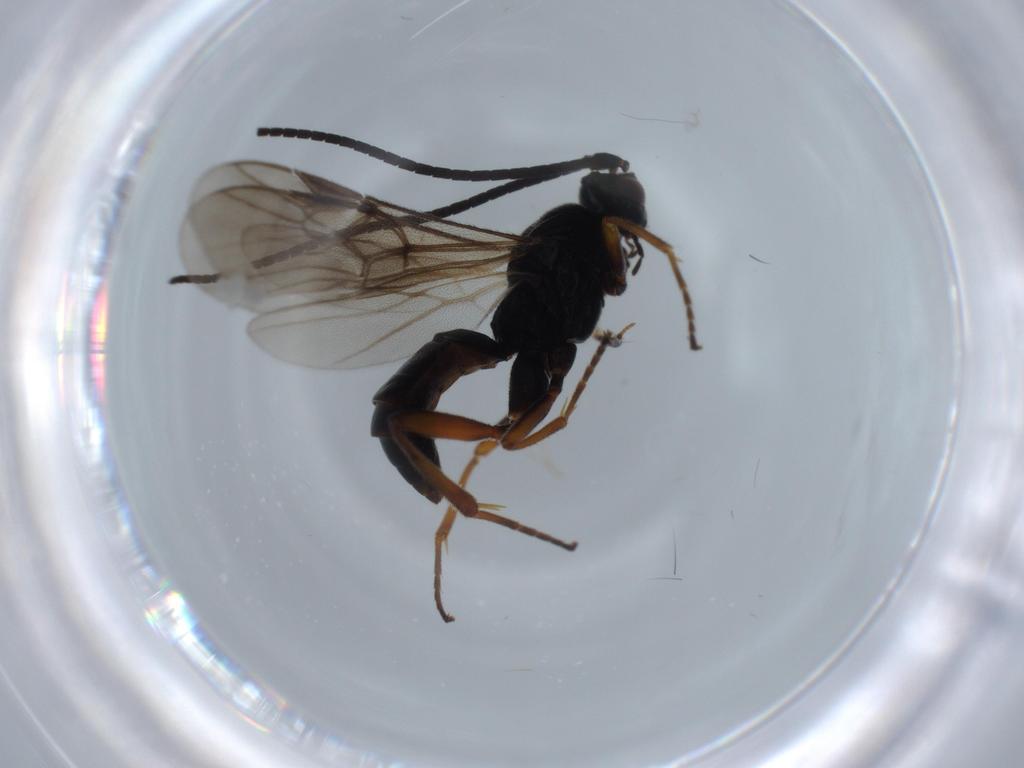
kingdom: Animalia
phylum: Arthropoda
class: Insecta
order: Hymenoptera
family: Braconidae
